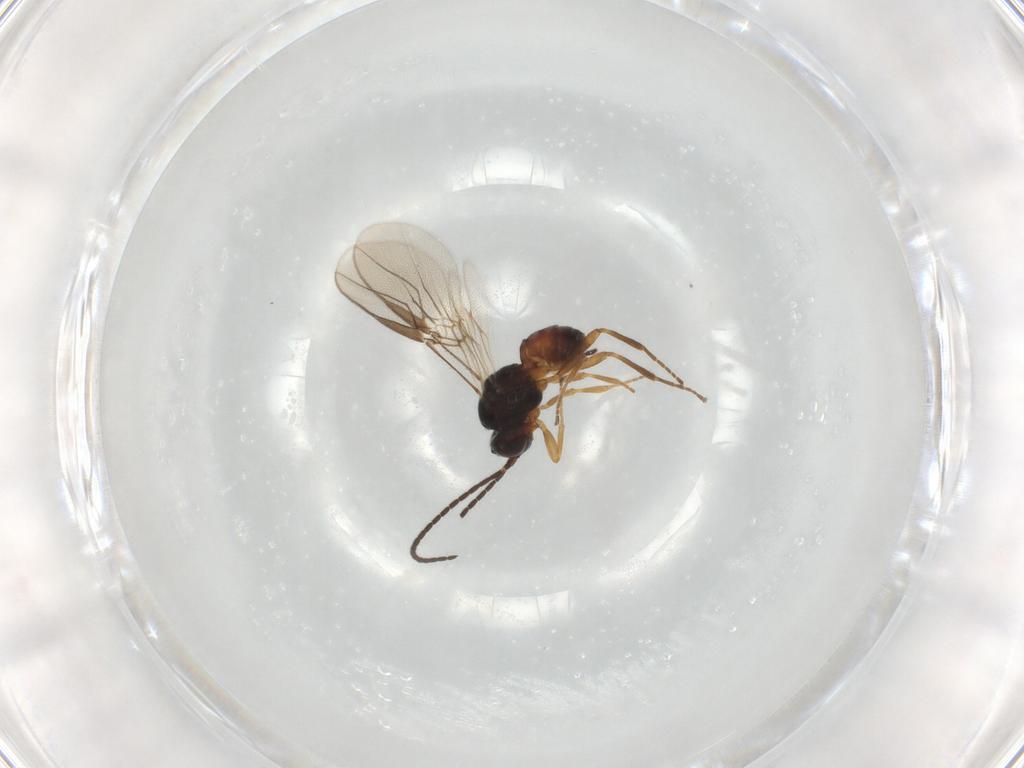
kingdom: Animalia
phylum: Arthropoda
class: Insecta
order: Hymenoptera
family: Braconidae
